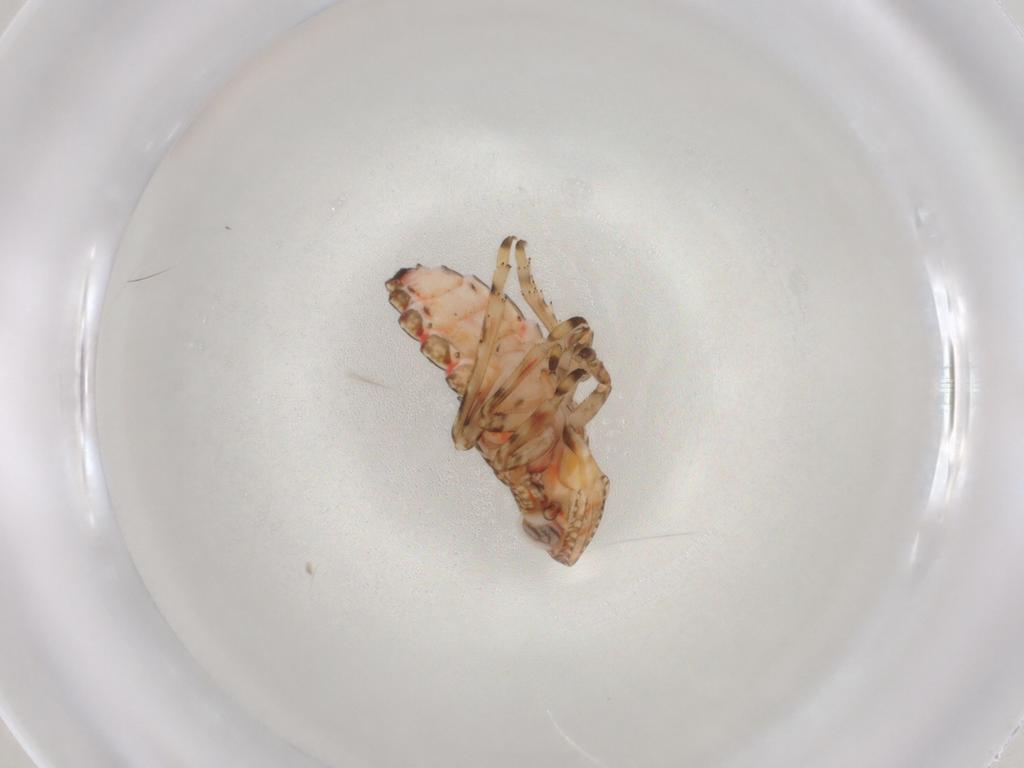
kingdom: Animalia
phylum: Arthropoda
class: Insecta
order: Hemiptera
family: Tropiduchidae
